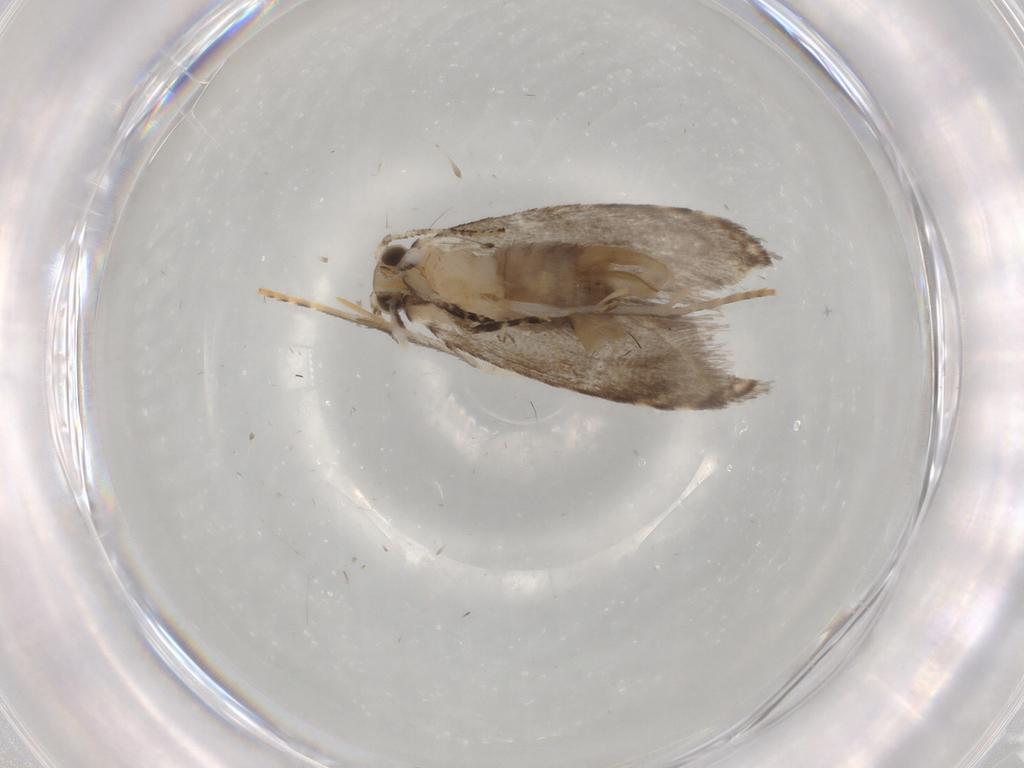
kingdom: Animalia
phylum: Arthropoda
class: Insecta
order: Lepidoptera
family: Tineidae
